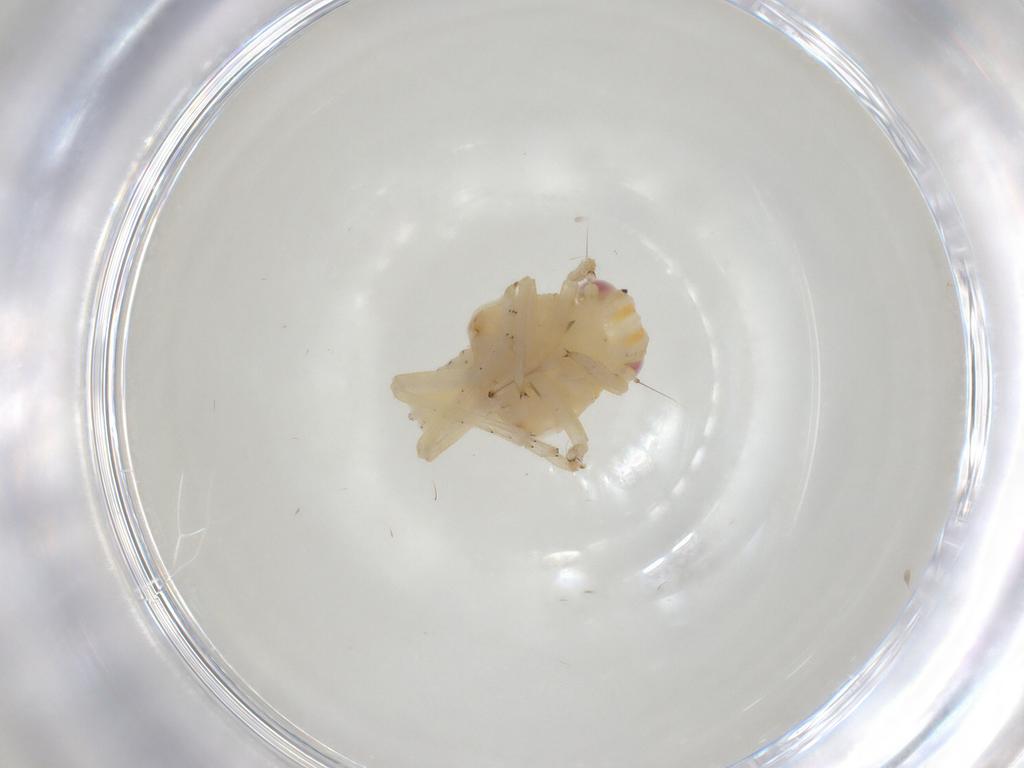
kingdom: Animalia
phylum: Arthropoda
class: Insecta
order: Hemiptera
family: Tropiduchidae
